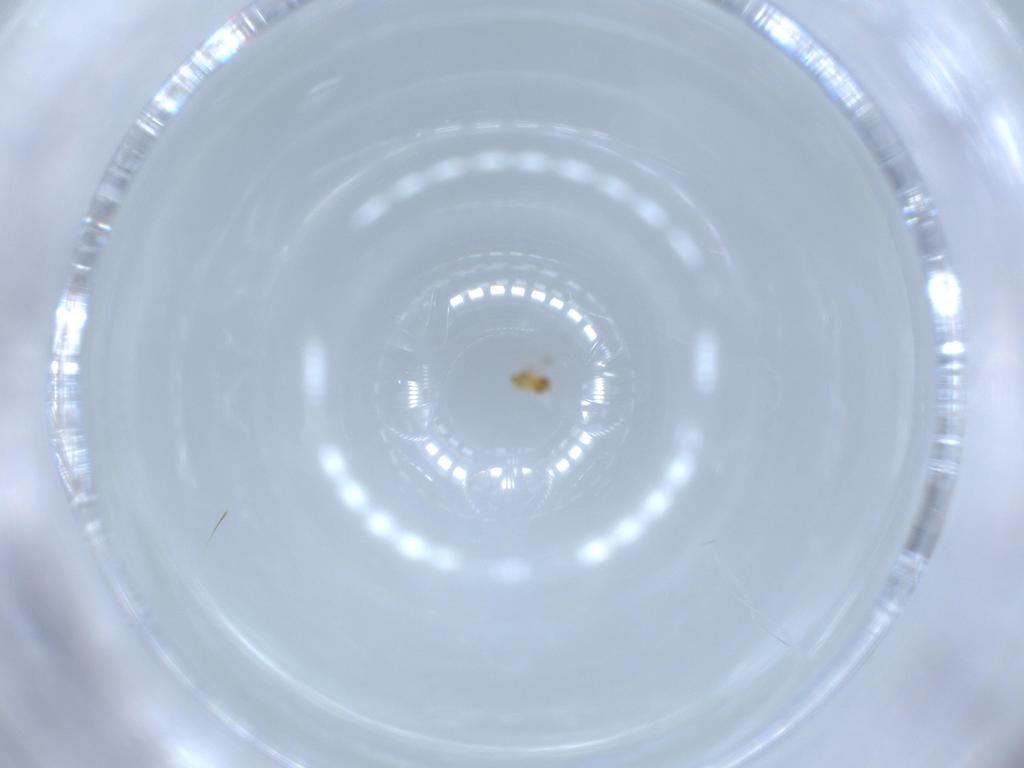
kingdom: Animalia
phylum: Arthropoda
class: Insecta
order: Hymenoptera
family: Trichogrammatidae
